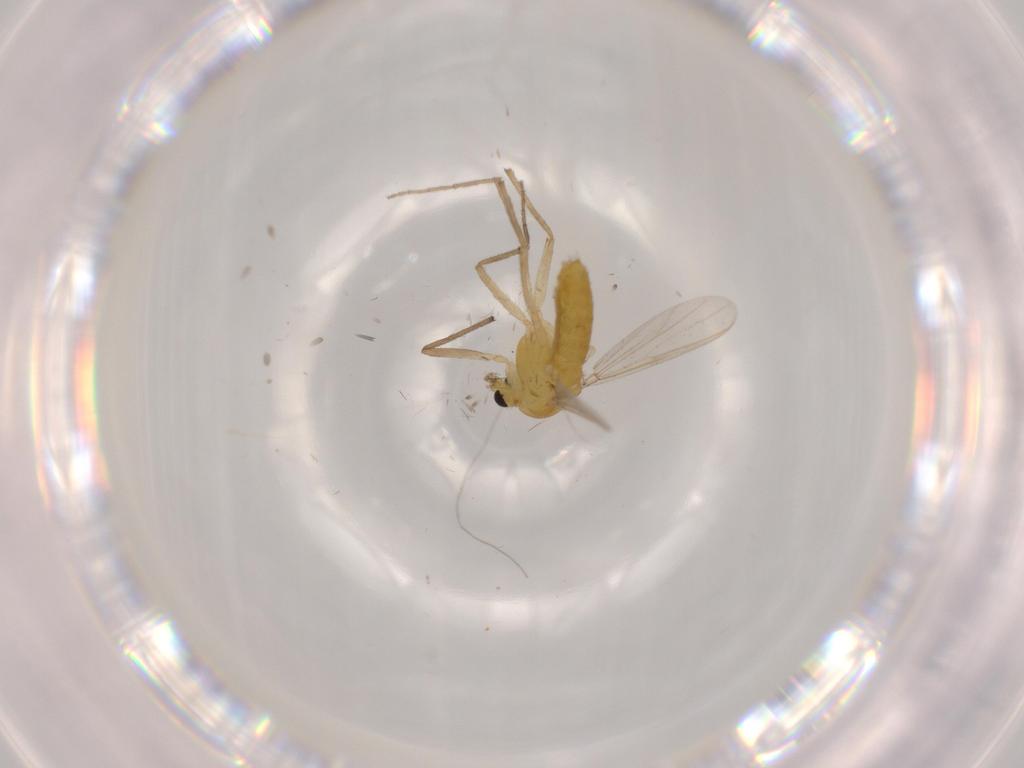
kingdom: Animalia
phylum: Arthropoda
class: Insecta
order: Diptera
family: Chironomidae
